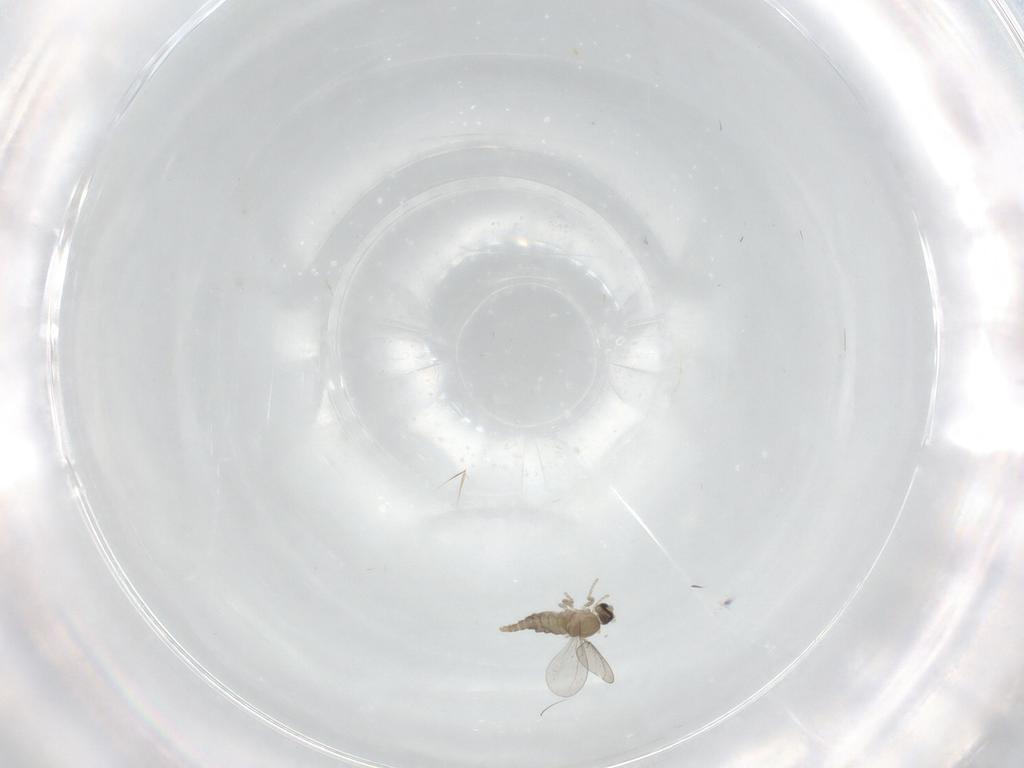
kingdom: Animalia
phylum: Arthropoda
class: Insecta
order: Diptera
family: Cecidomyiidae
